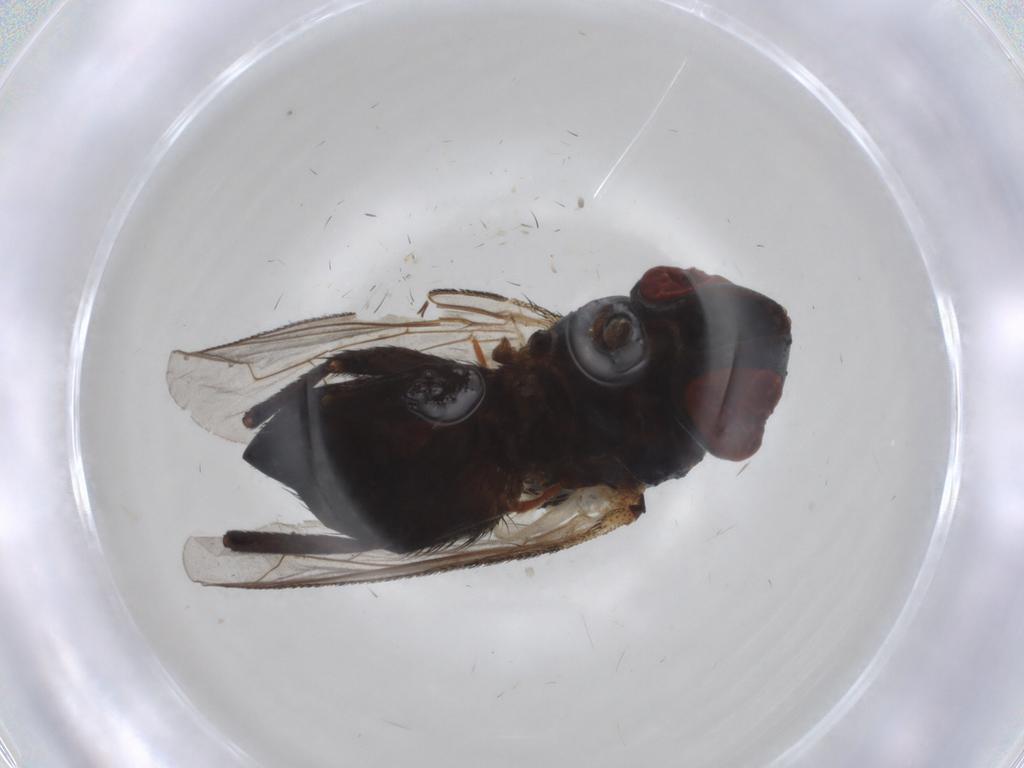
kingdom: Animalia
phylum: Arthropoda
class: Insecta
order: Diptera
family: Sarcophagidae
